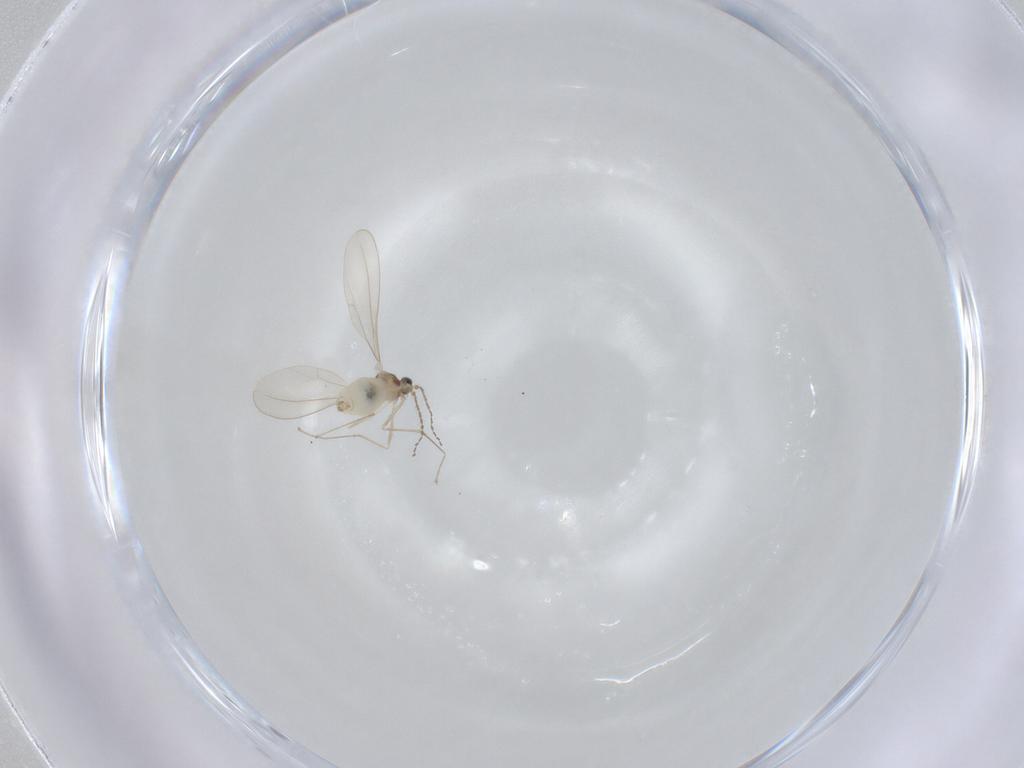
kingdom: Animalia
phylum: Arthropoda
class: Insecta
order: Diptera
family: Cecidomyiidae
